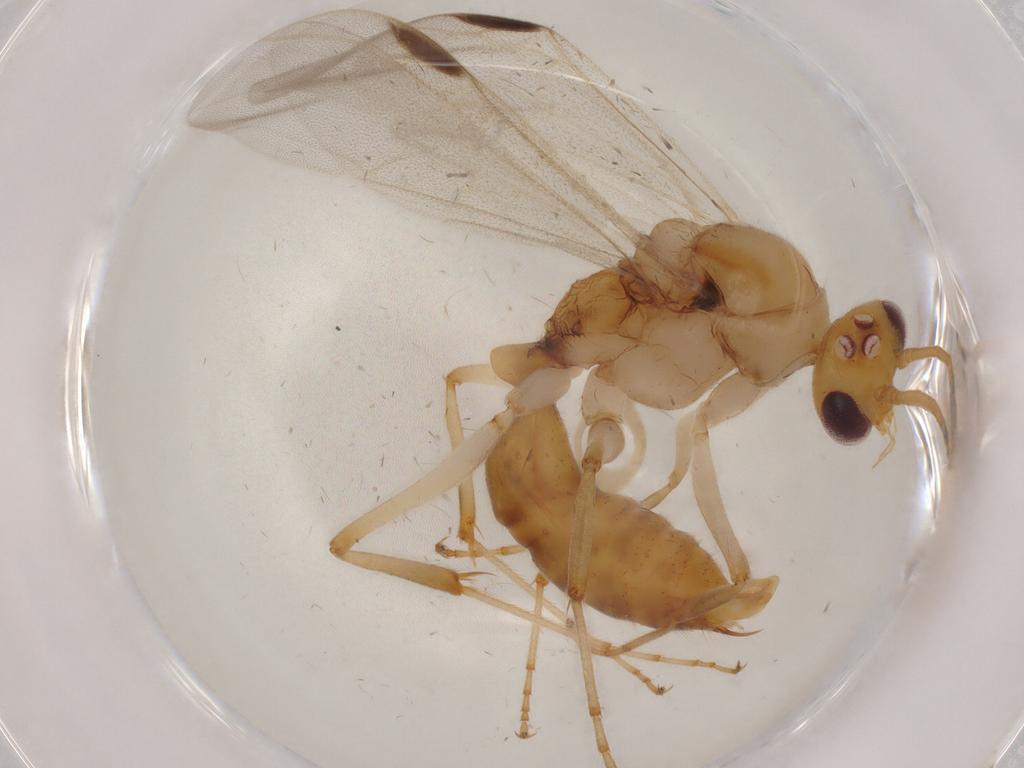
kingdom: Animalia
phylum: Arthropoda
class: Insecta
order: Hymenoptera
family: Formicidae
